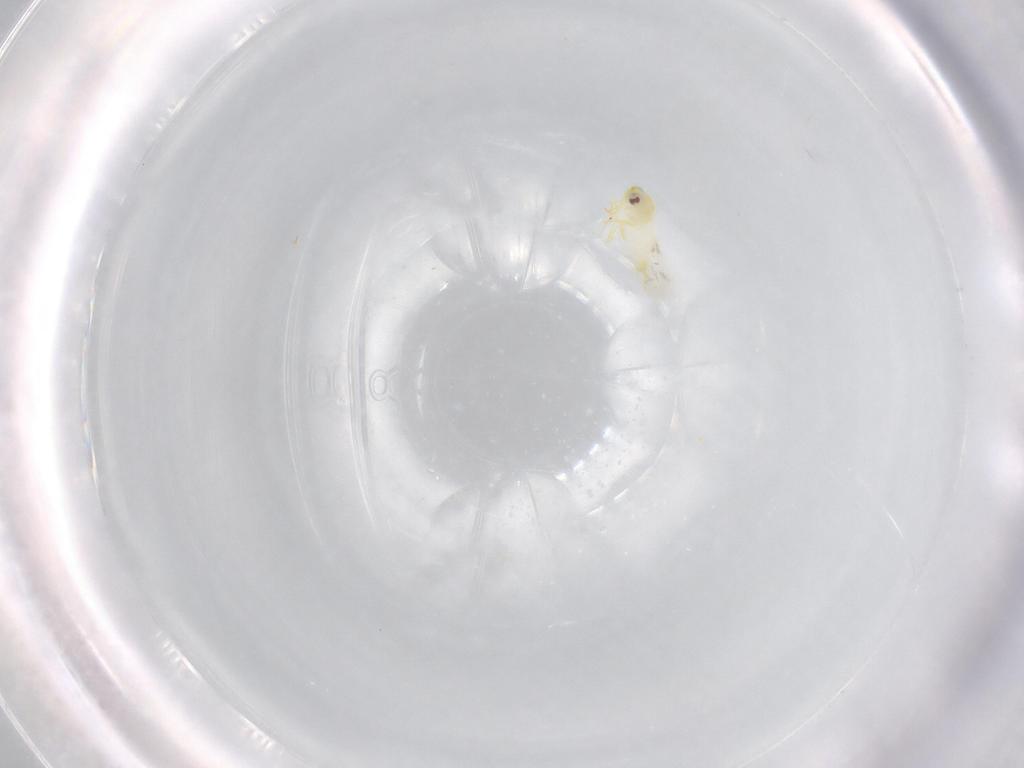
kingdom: Animalia
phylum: Arthropoda
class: Insecta
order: Hemiptera
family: Aleyrodidae
